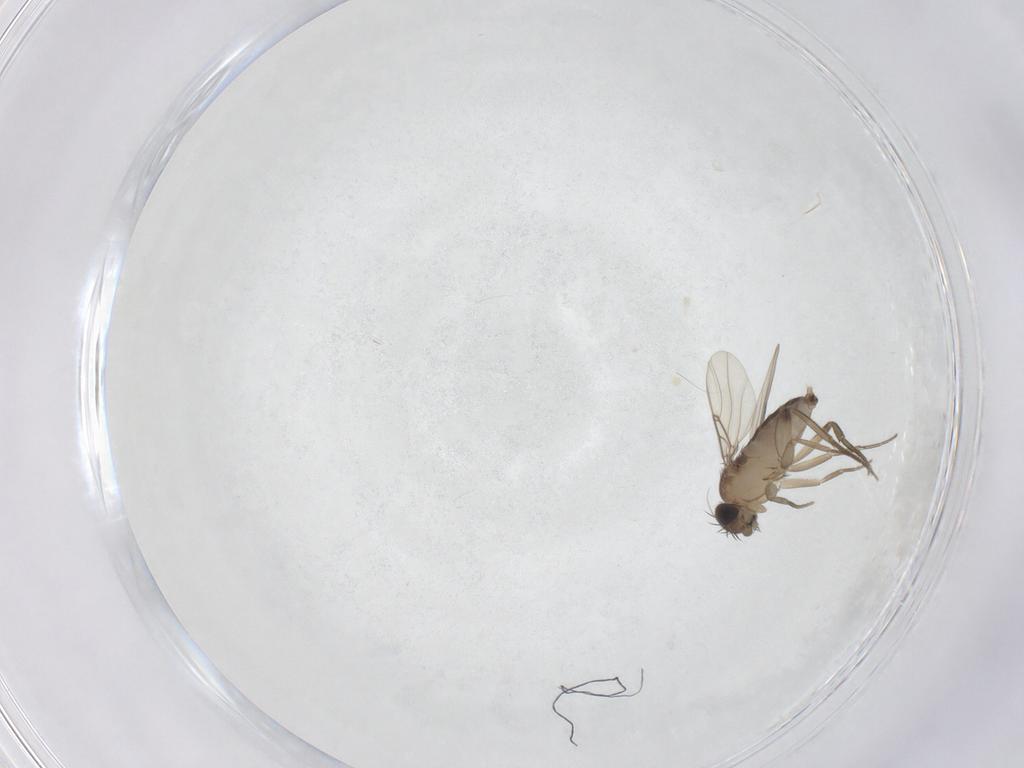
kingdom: Animalia
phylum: Arthropoda
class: Insecta
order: Diptera
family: Phoridae
